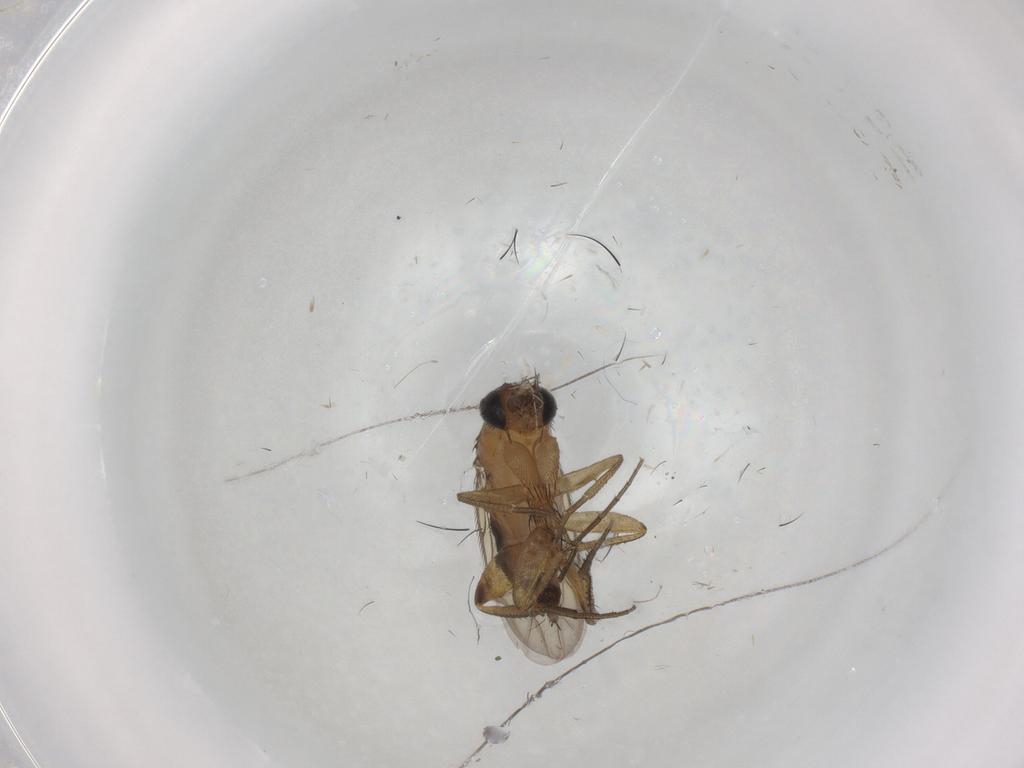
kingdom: Animalia
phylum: Arthropoda
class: Insecta
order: Diptera
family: Phoridae
